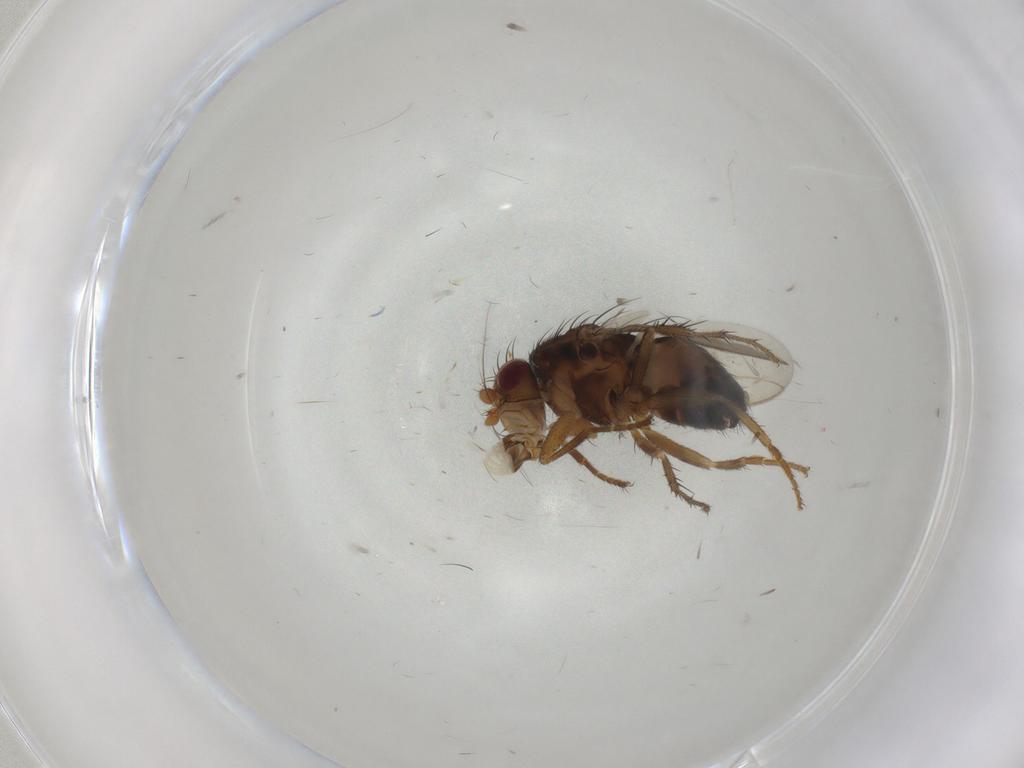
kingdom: Animalia
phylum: Arthropoda
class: Insecta
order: Diptera
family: Sphaeroceridae
